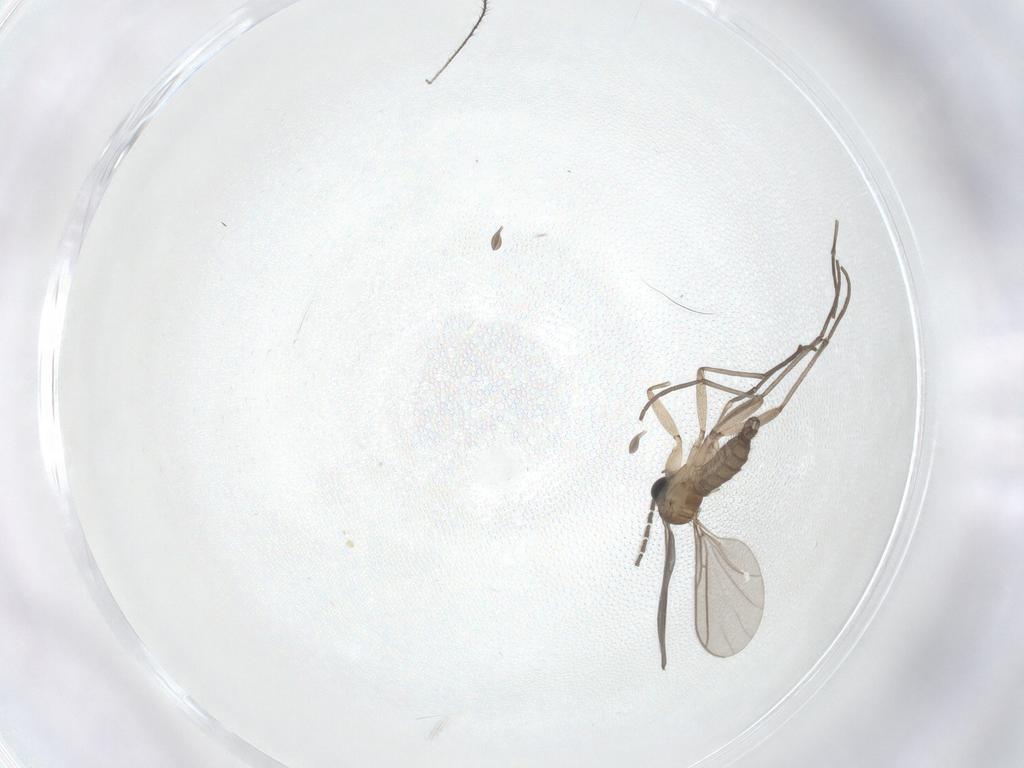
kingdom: Animalia
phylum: Arthropoda
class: Insecta
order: Diptera
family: Sciaridae
